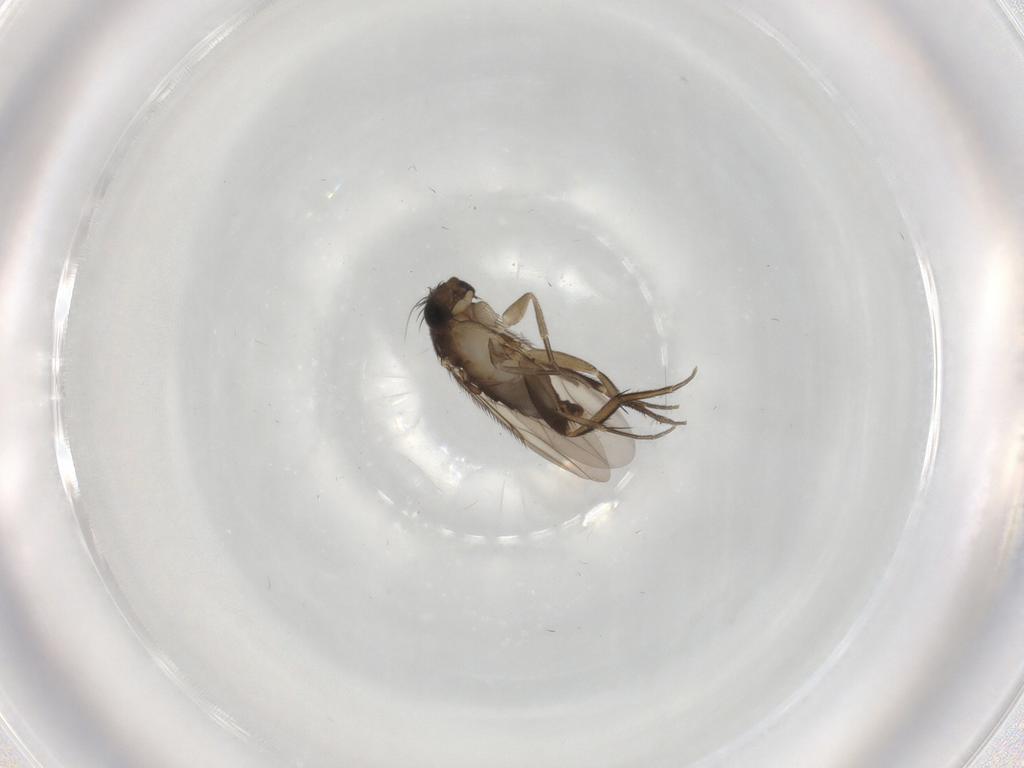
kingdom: Animalia
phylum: Arthropoda
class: Insecta
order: Diptera
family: Phoridae
